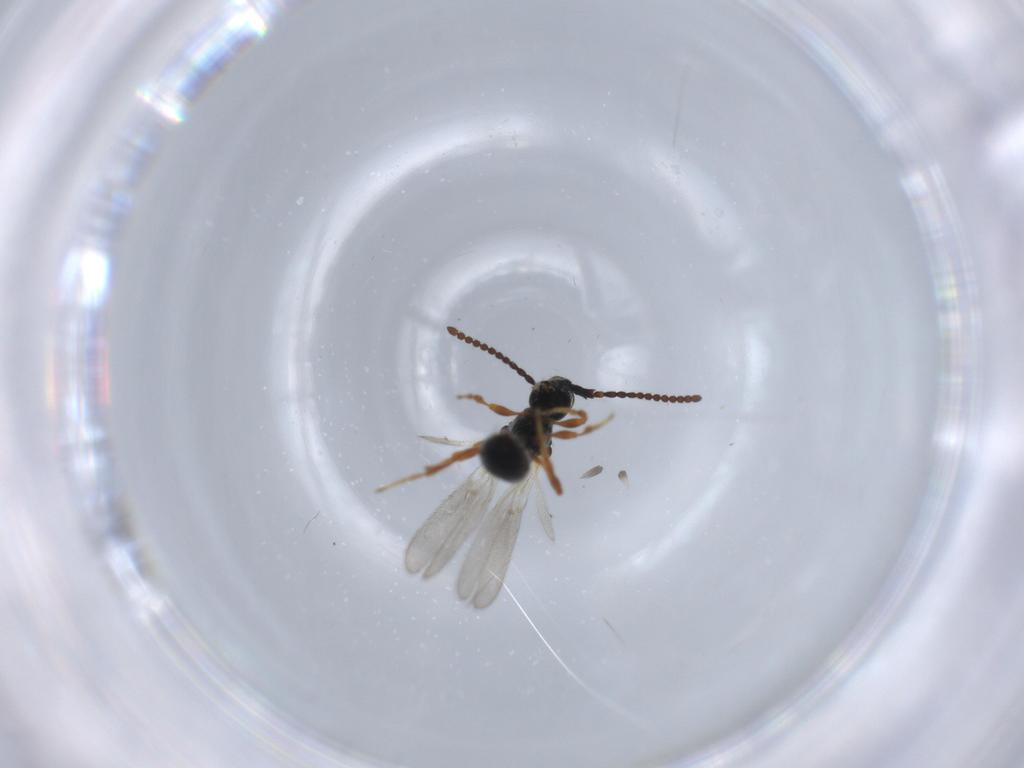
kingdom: Animalia
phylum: Arthropoda
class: Insecta
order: Hymenoptera
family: Diapriidae
